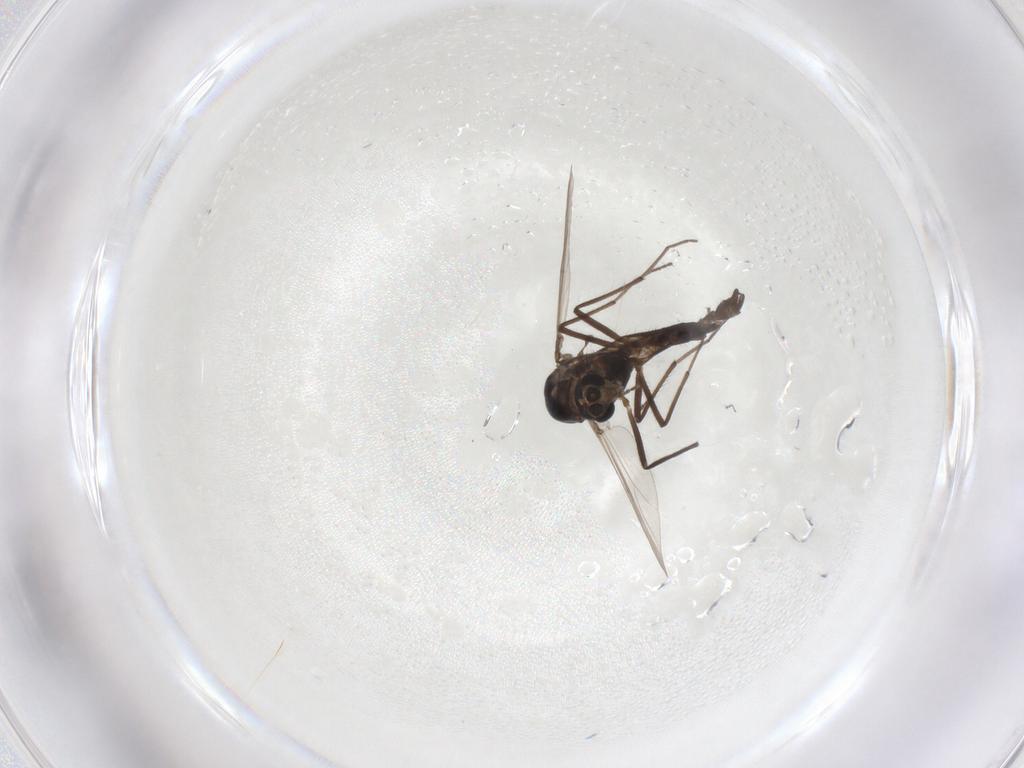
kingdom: Animalia
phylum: Arthropoda
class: Insecta
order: Diptera
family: Chironomidae
